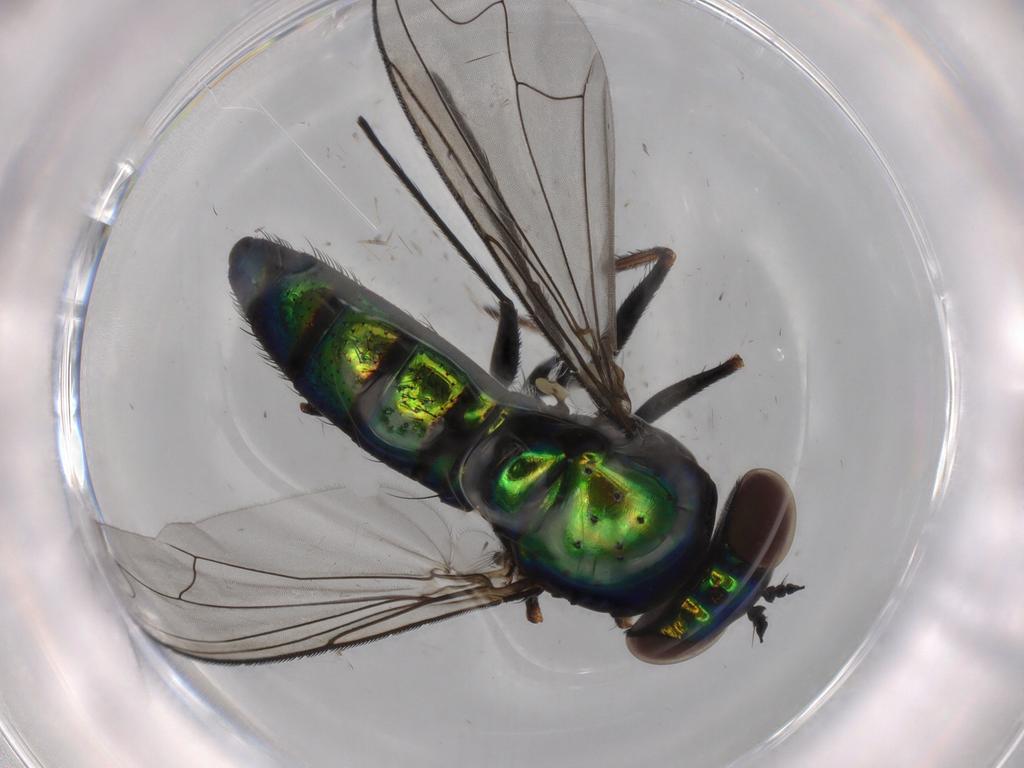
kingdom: Animalia
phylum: Arthropoda
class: Insecta
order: Diptera
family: Dolichopodidae
